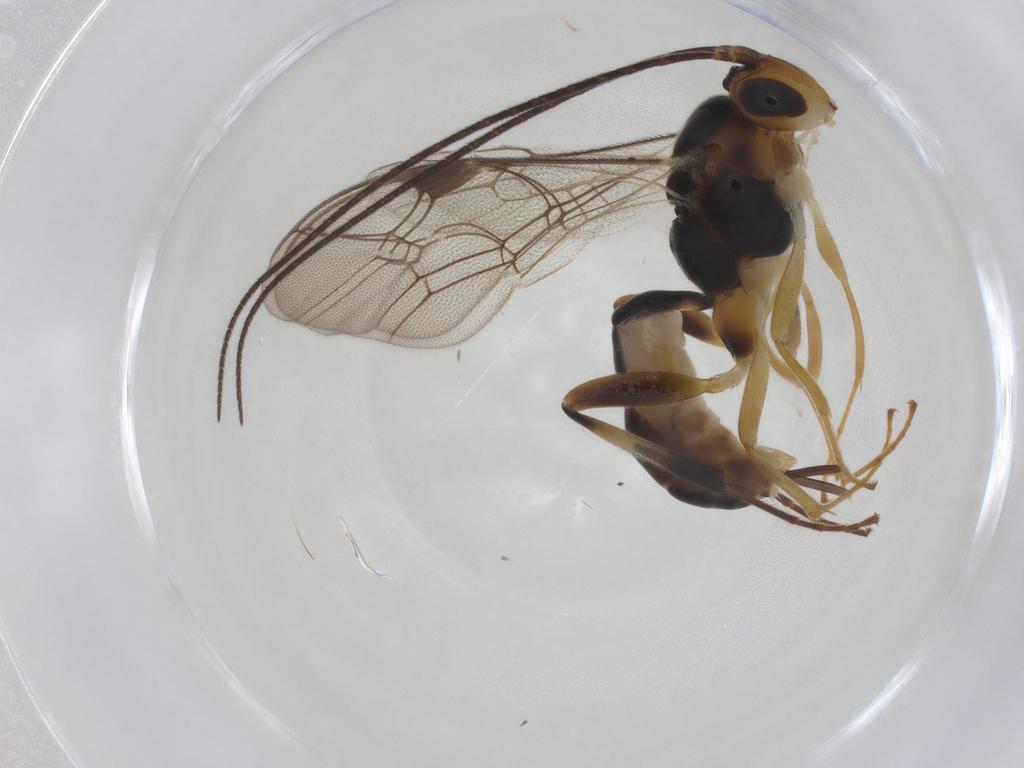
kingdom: Animalia
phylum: Arthropoda
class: Insecta
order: Hymenoptera
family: Ichneumonidae
